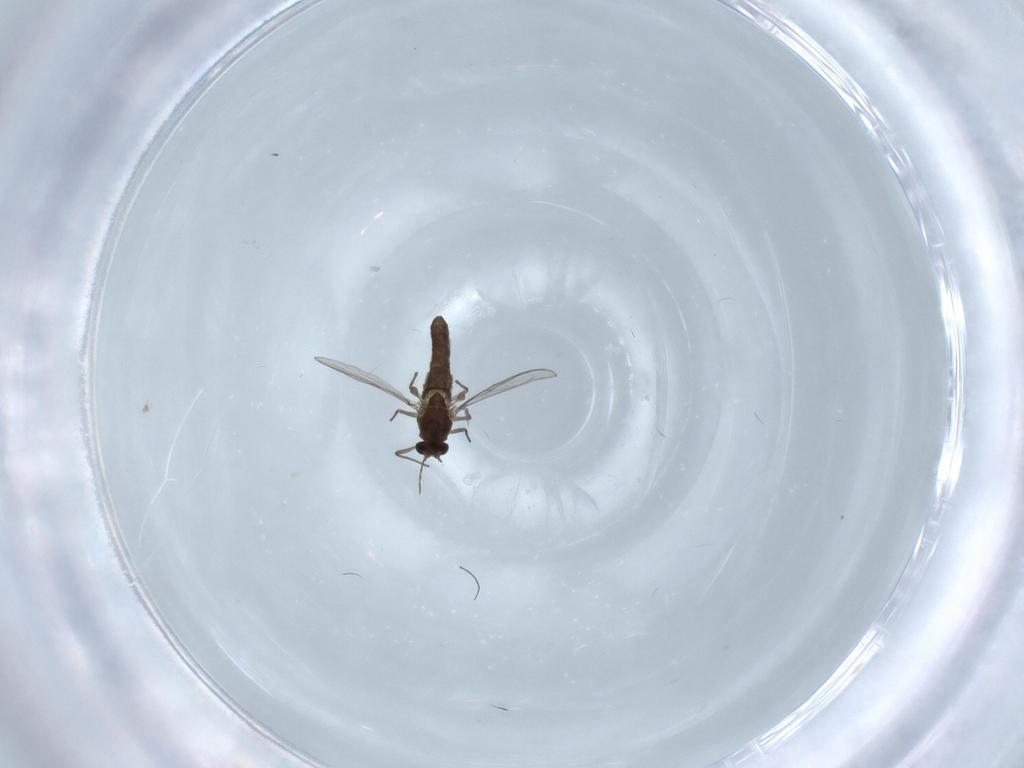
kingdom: Animalia
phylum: Arthropoda
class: Insecta
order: Diptera
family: Chironomidae
